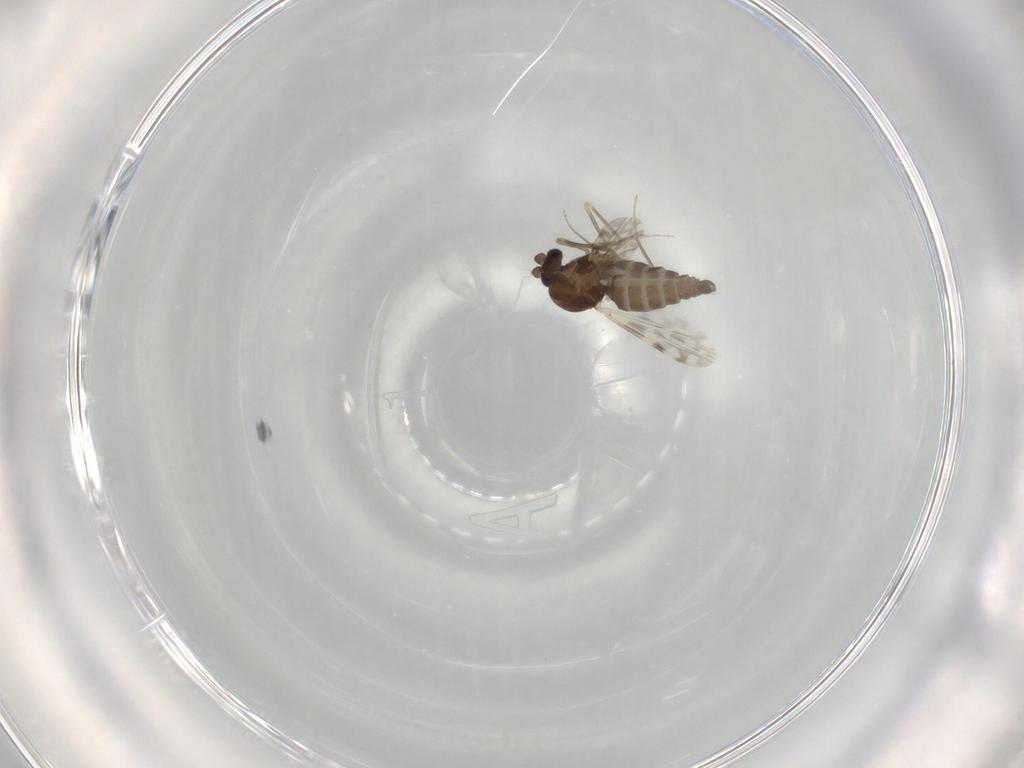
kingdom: Animalia
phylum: Arthropoda
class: Insecta
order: Diptera
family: Ceratopogonidae
